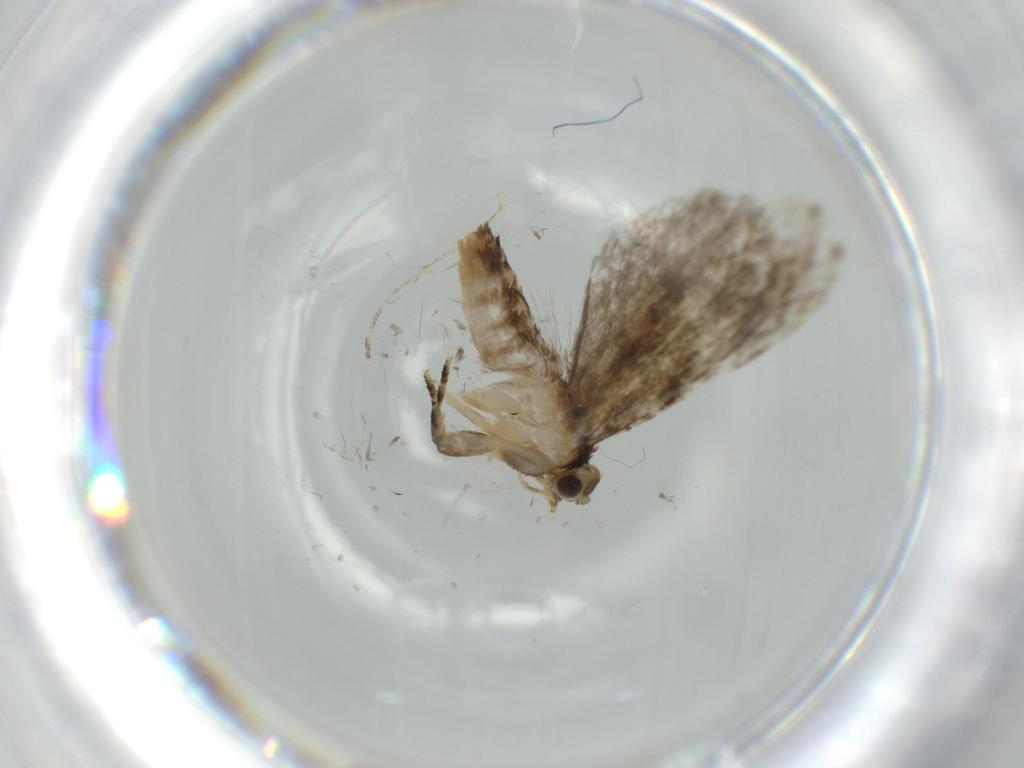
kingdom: Animalia
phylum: Arthropoda
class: Insecta
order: Lepidoptera
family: Tineidae
